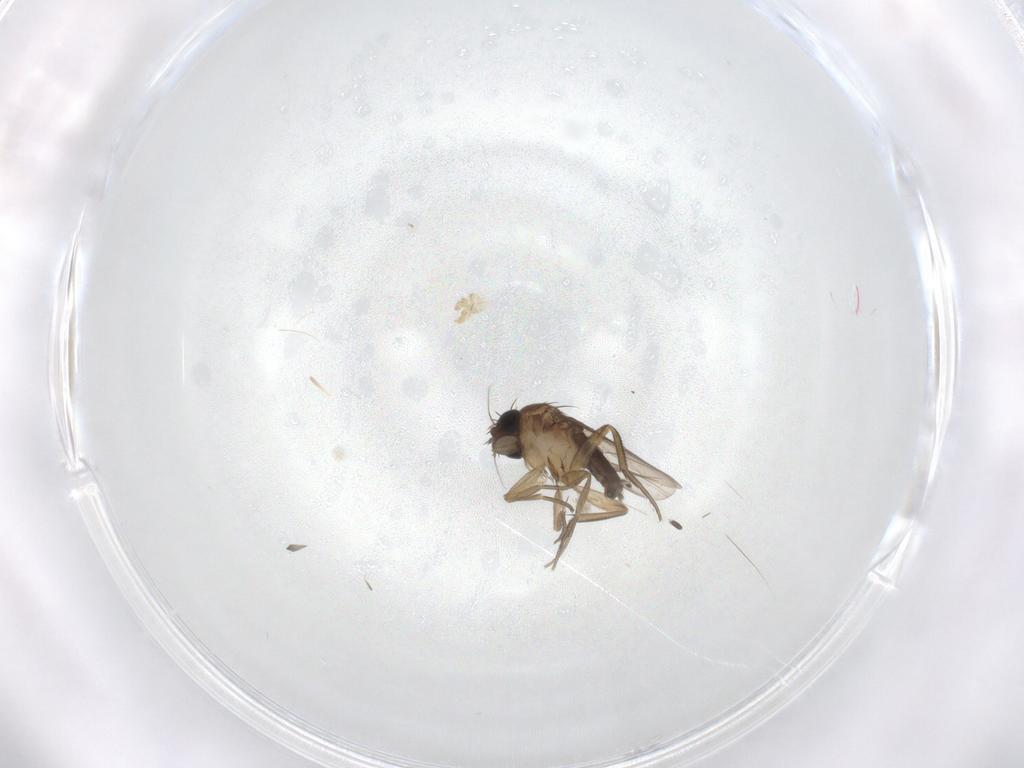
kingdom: Animalia
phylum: Arthropoda
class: Insecta
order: Diptera
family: Phoridae
